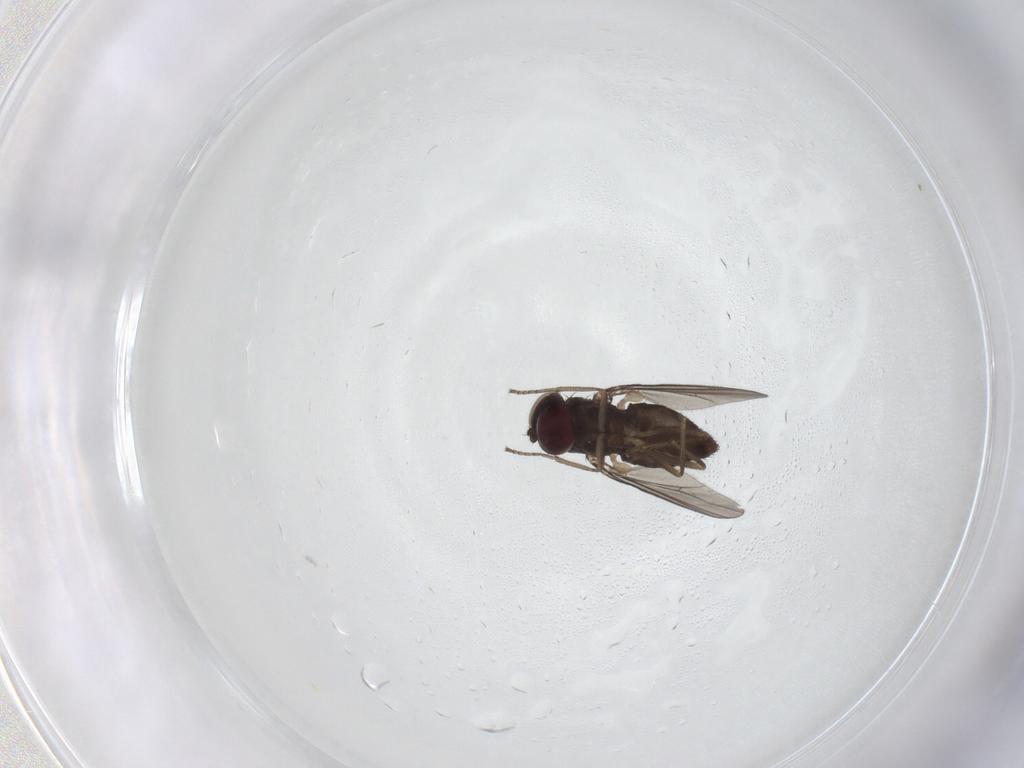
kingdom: Animalia
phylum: Arthropoda
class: Insecta
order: Diptera
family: Dolichopodidae
